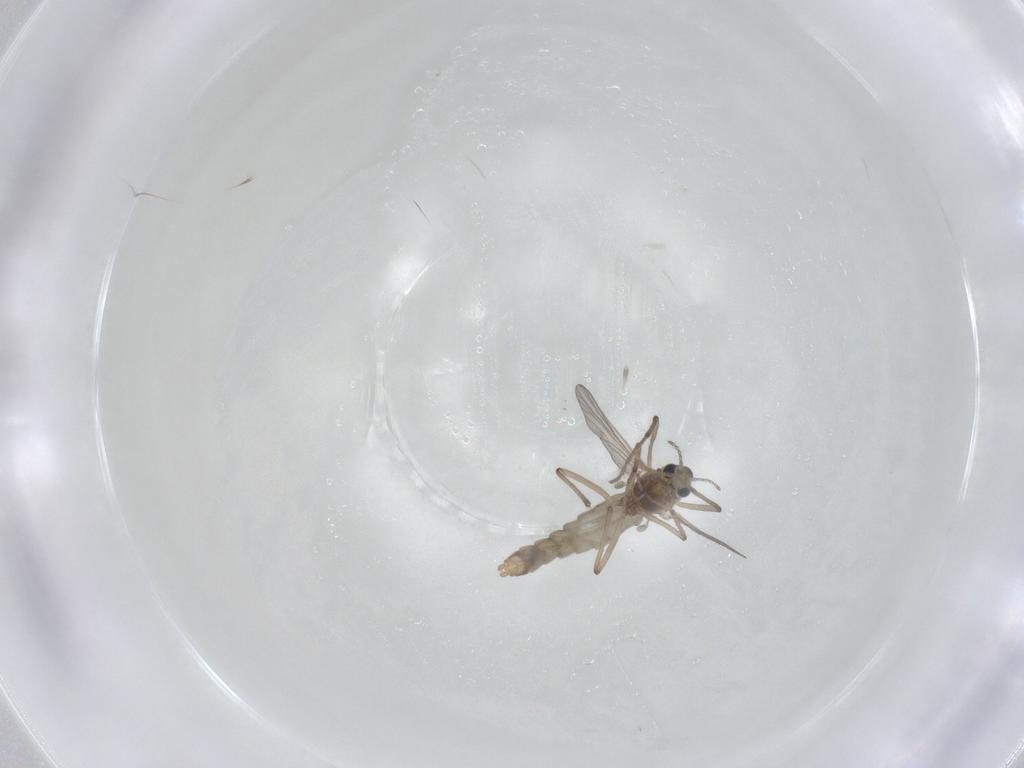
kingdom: Animalia
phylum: Arthropoda
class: Insecta
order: Diptera
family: Chironomidae
